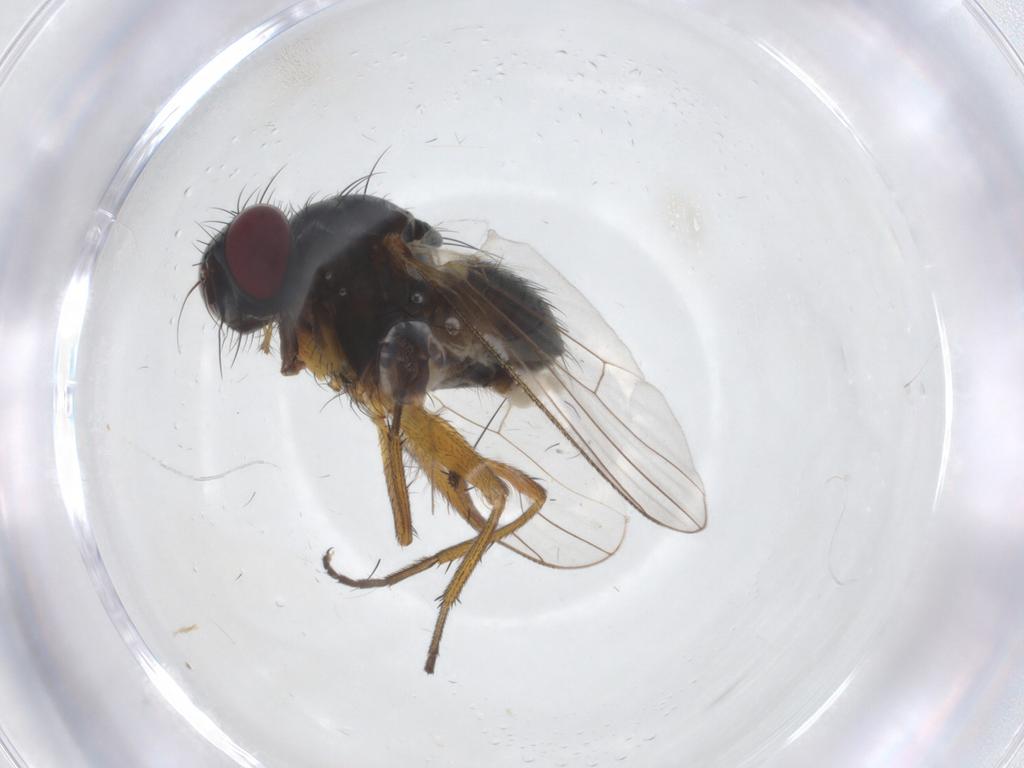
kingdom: Animalia
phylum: Arthropoda
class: Insecta
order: Diptera
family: Muscidae
